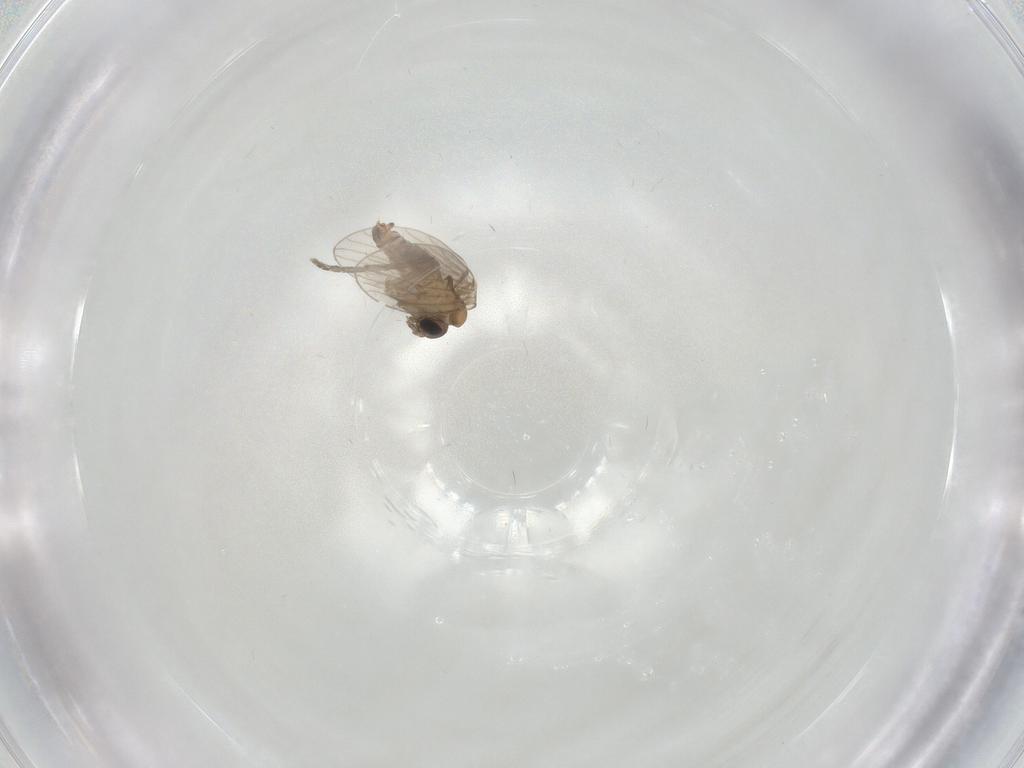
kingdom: Animalia
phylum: Arthropoda
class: Insecta
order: Diptera
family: Psychodidae
